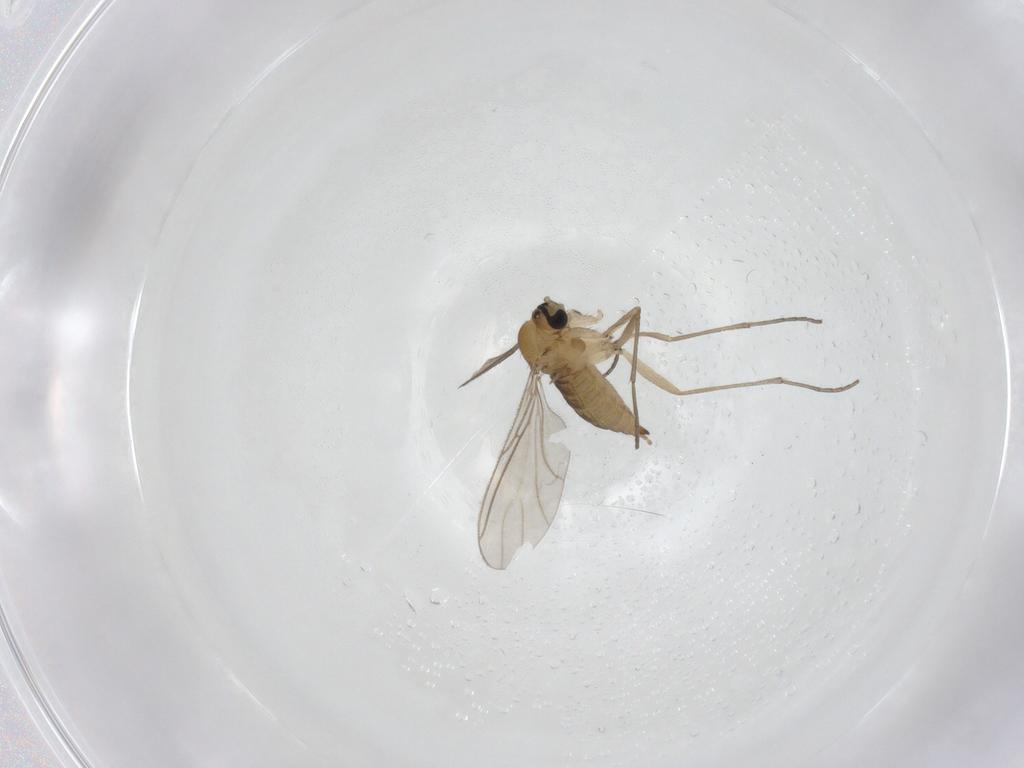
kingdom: Animalia
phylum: Arthropoda
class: Insecta
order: Diptera
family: Sciaridae
